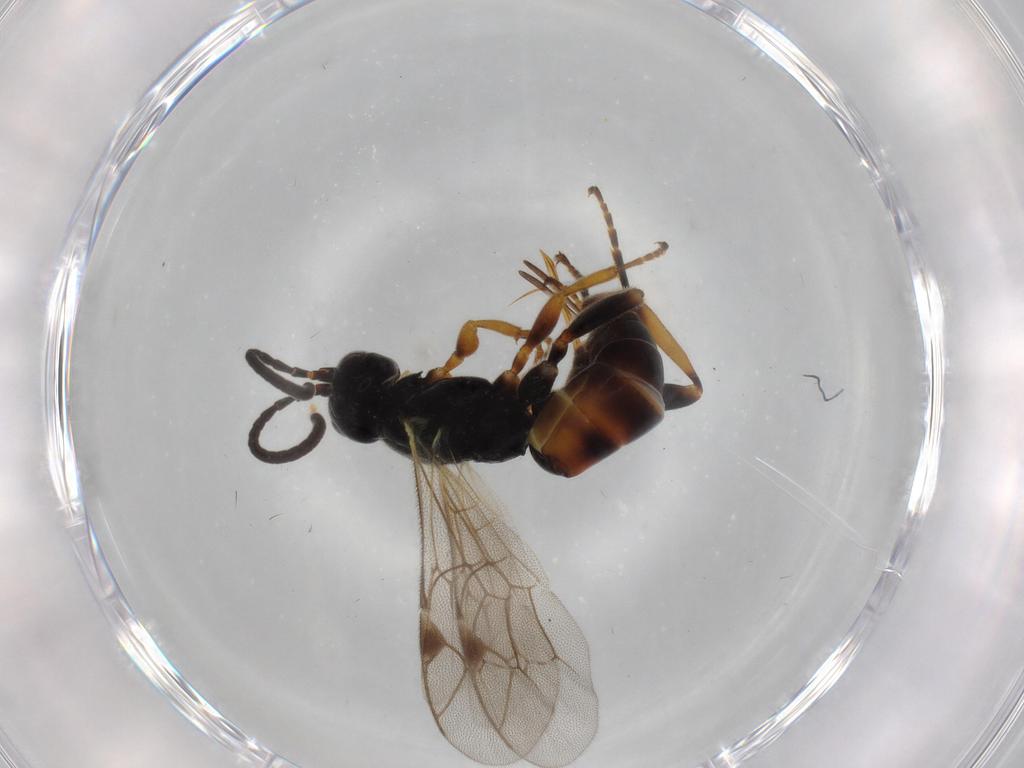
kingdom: Animalia
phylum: Arthropoda
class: Insecta
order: Hymenoptera
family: Ichneumonidae
